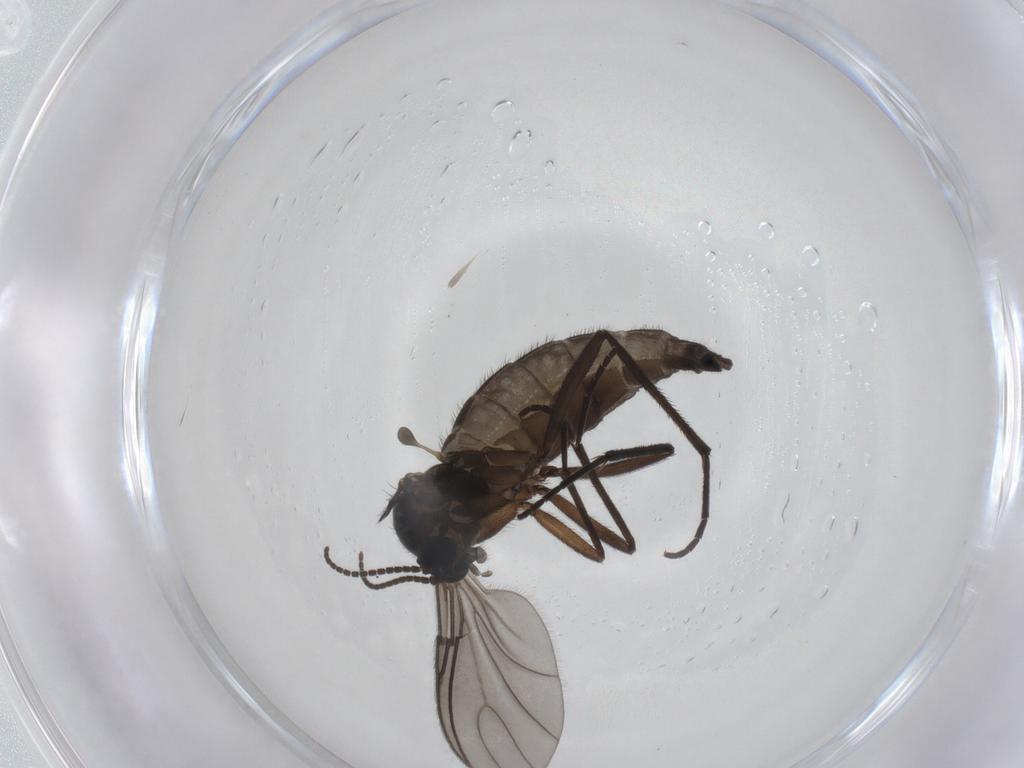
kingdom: Animalia
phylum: Arthropoda
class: Insecta
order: Diptera
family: Sciaridae
